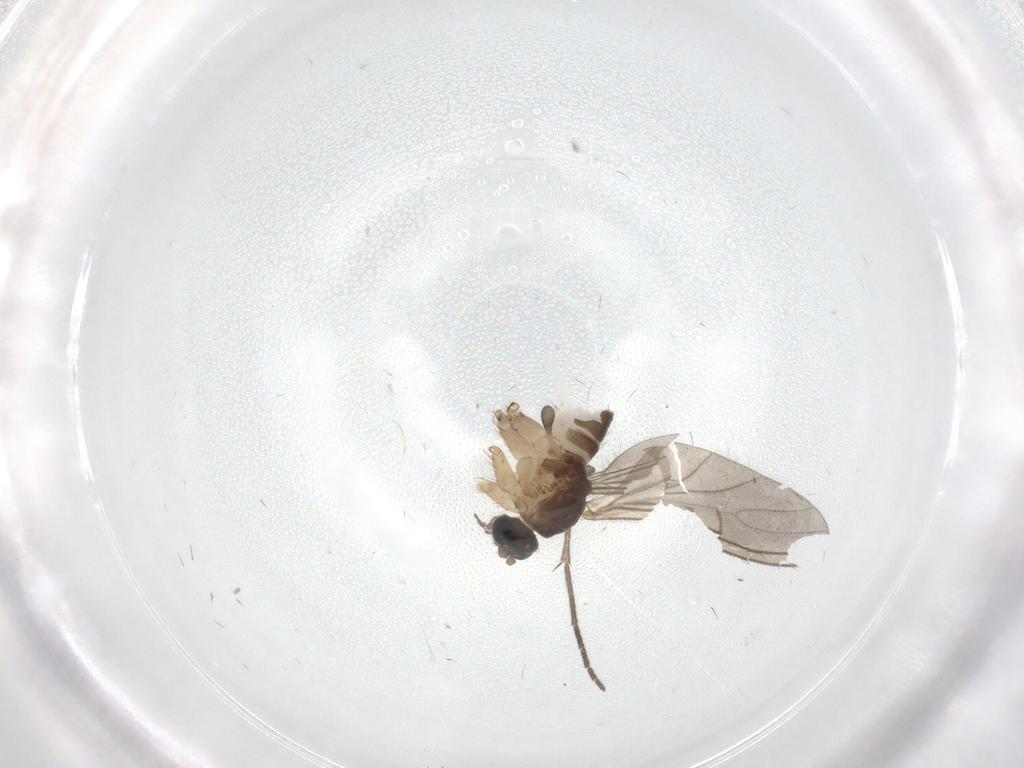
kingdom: Animalia
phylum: Arthropoda
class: Insecta
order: Diptera
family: Sciaridae
